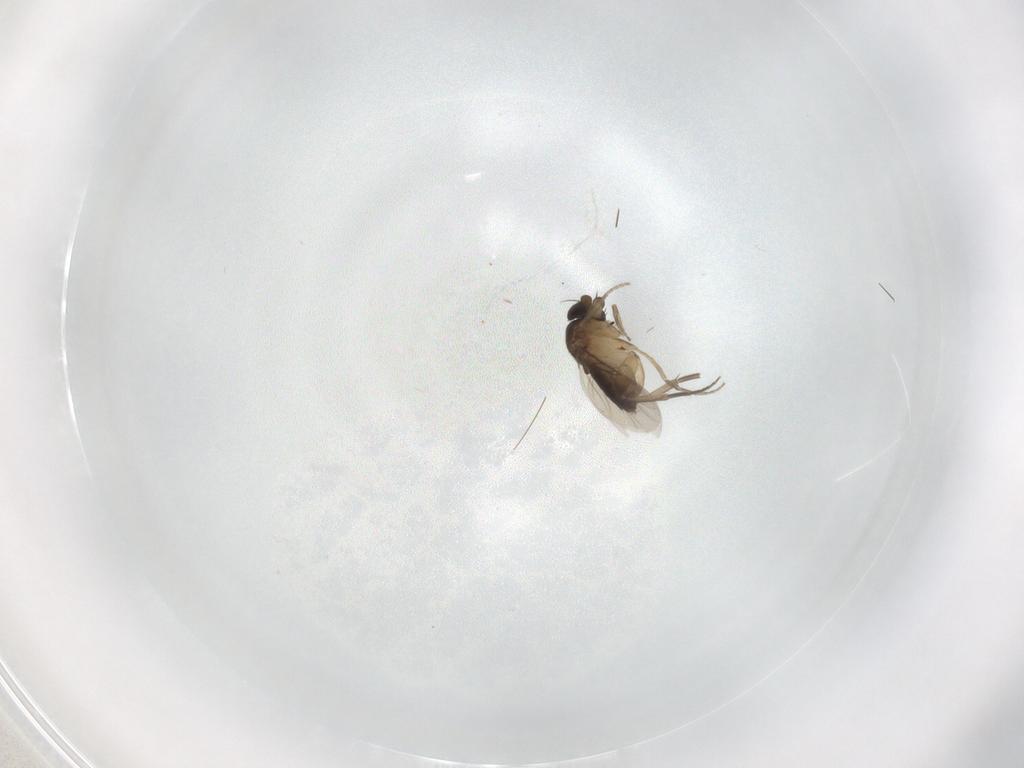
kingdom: Animalia
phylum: Arthropoda
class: Insecta
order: Diptera
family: Phoridae
